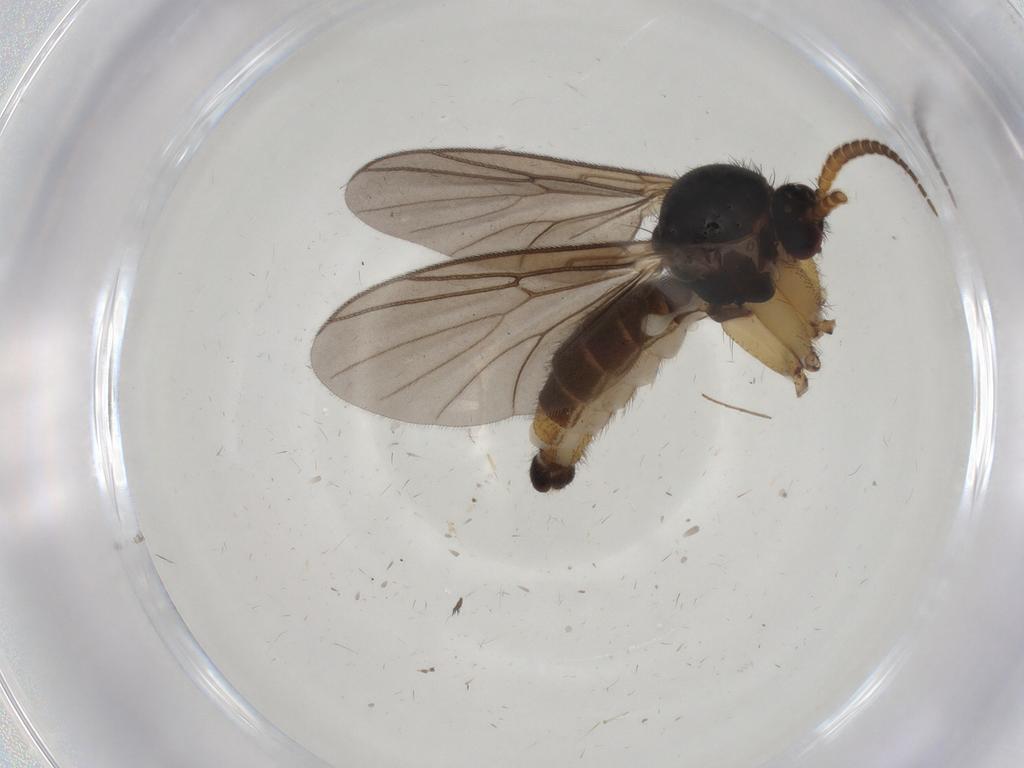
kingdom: Animalia
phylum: Arthropoda
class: Insecta
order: Diptera
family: Mycetophilidae
